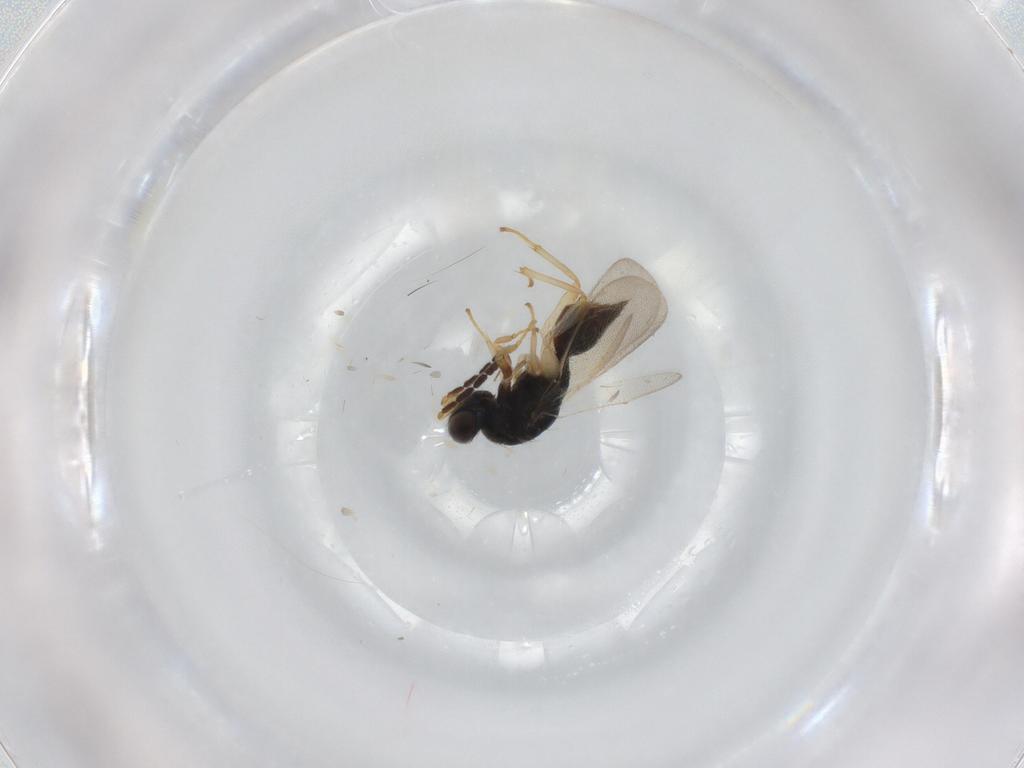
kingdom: Animalia
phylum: Arthropoda
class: Insecta
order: Hymenoptera
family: Eulophidae
